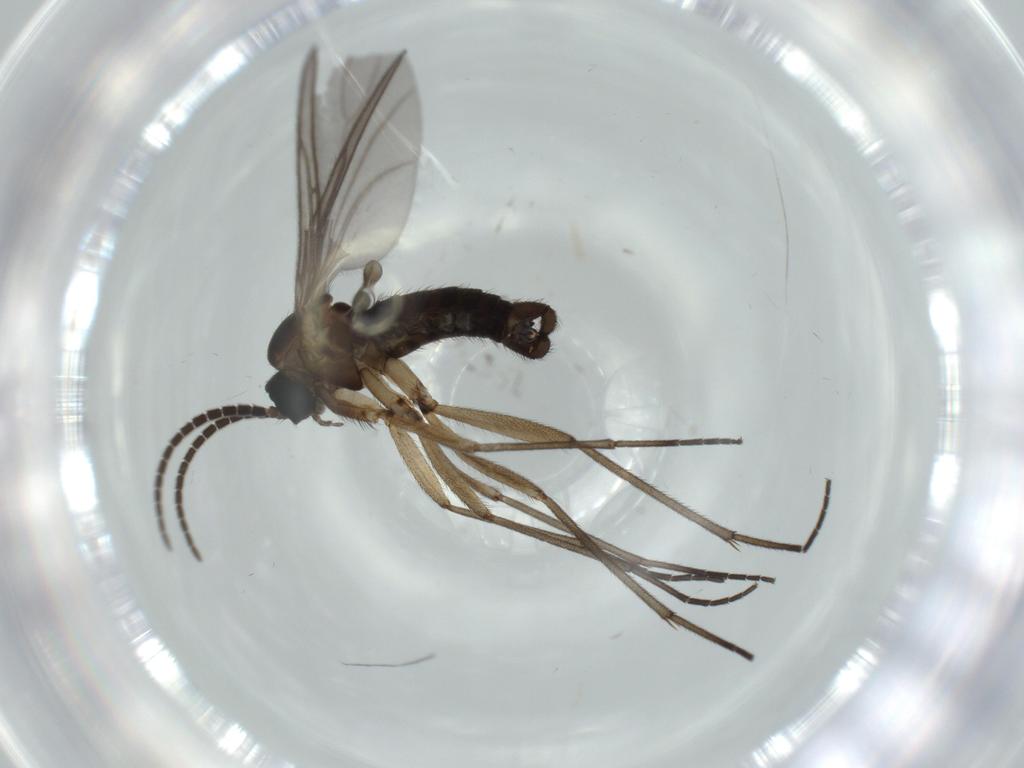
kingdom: Animalia
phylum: Arthropoda
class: Insecta
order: Diptera
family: Sciaridae
